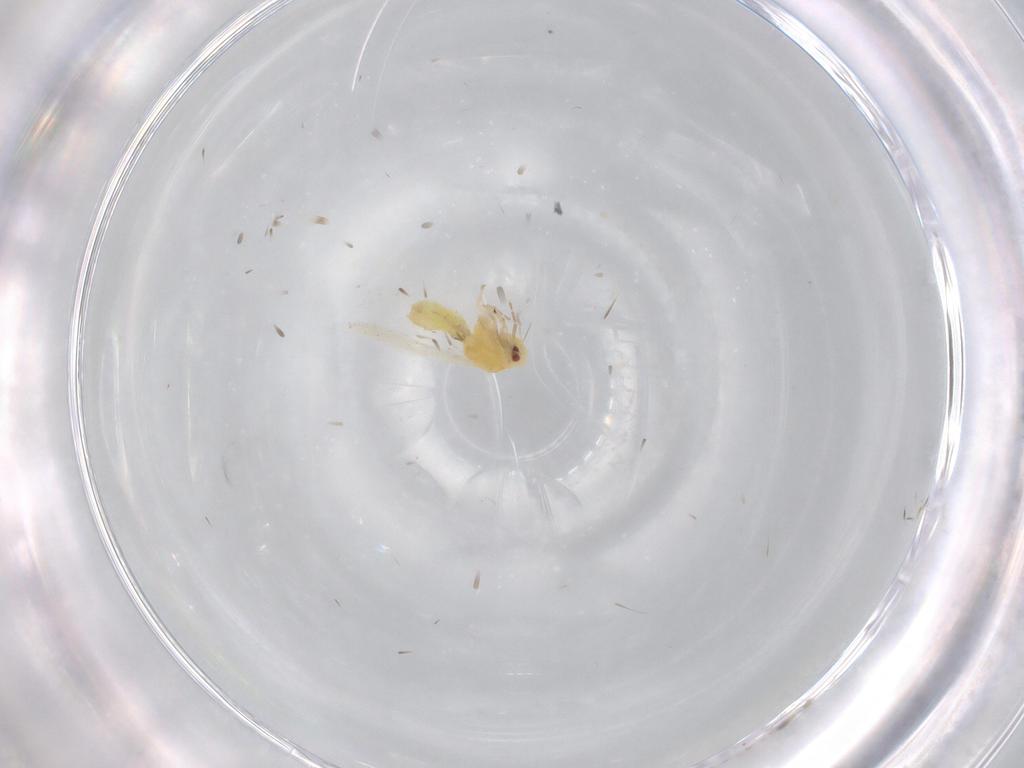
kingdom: Animalia
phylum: Arthropoda
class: Insecta
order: Hemiptera
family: Aleyrodidae
